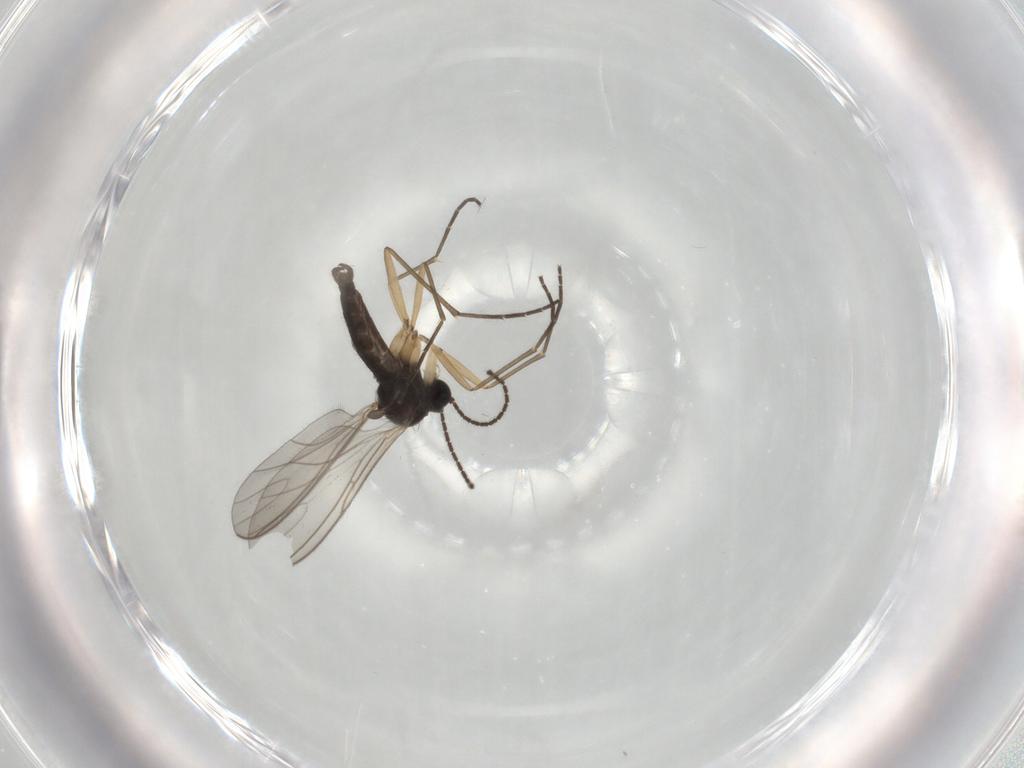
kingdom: Animalia
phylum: Arthropoda
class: Insecta
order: Diptera
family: Sciaridae
